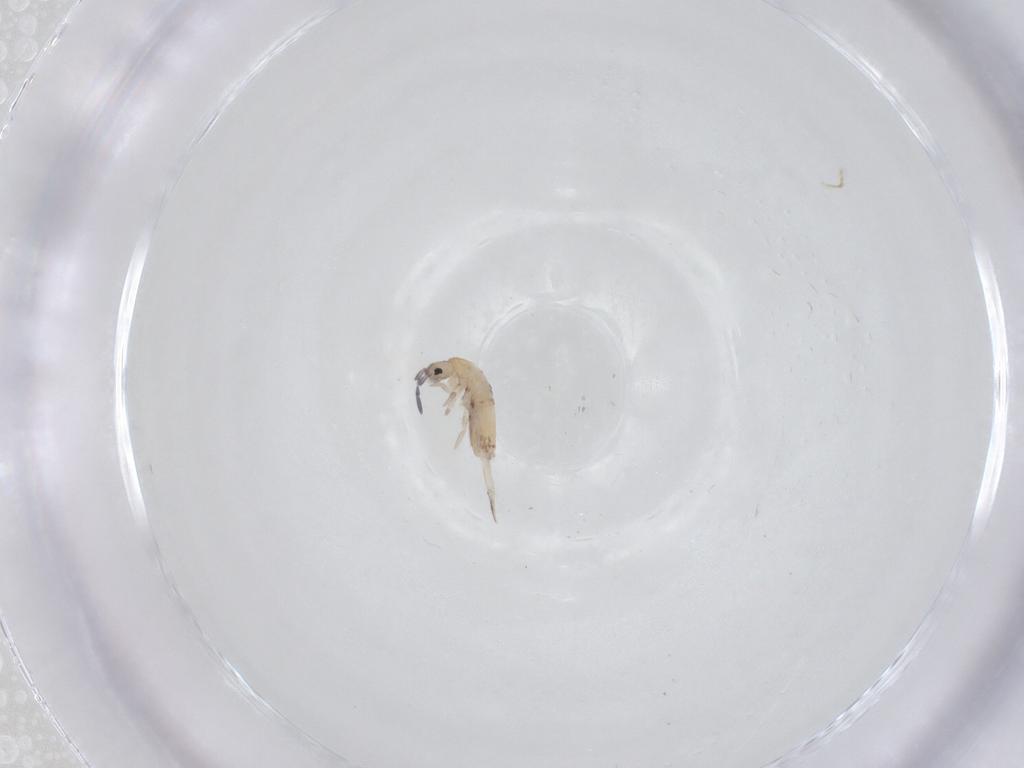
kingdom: Animalia
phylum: Arthropoda
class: Collembola
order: Entomobryomorpha
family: Entomobryidae
